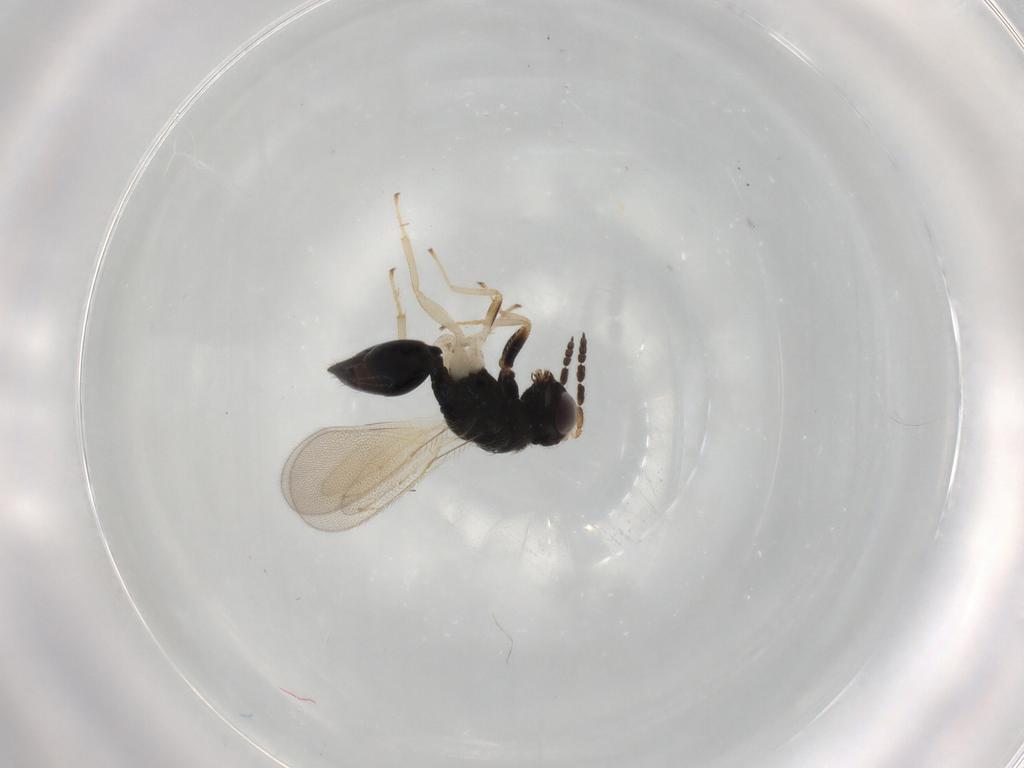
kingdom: Animalia
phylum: Arthropoda
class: Insecta
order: Hymenoptera
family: Eulophidae
